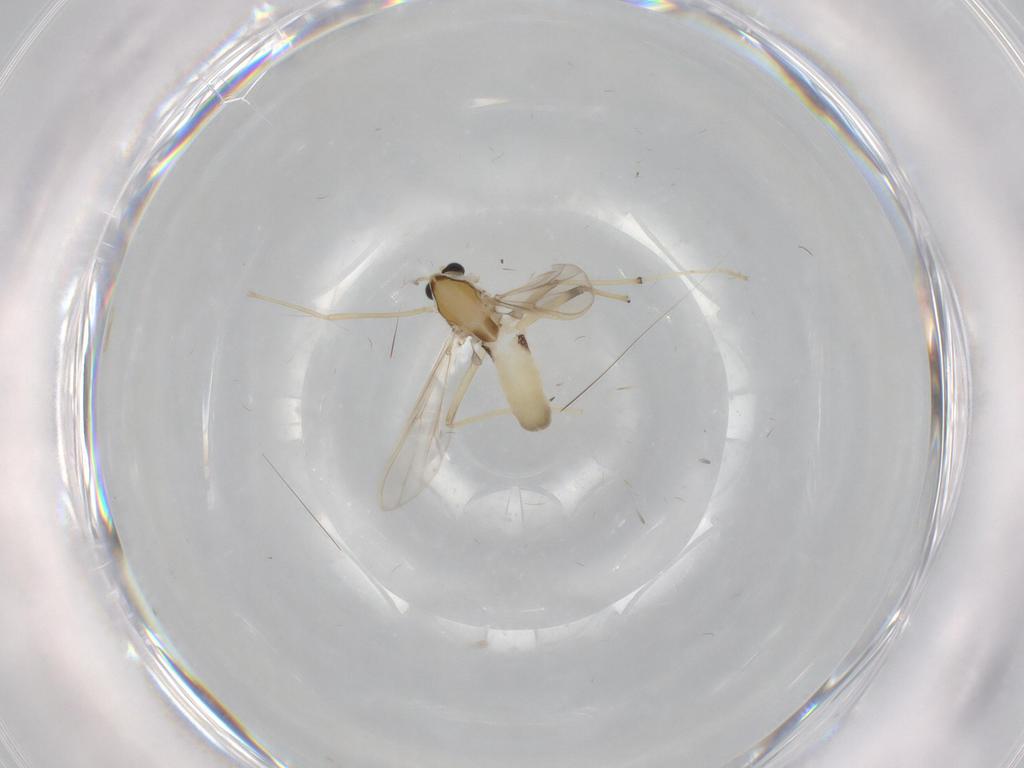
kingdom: Animalia
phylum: Arthropoda
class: Insecta
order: Diptera
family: Chironomidae
